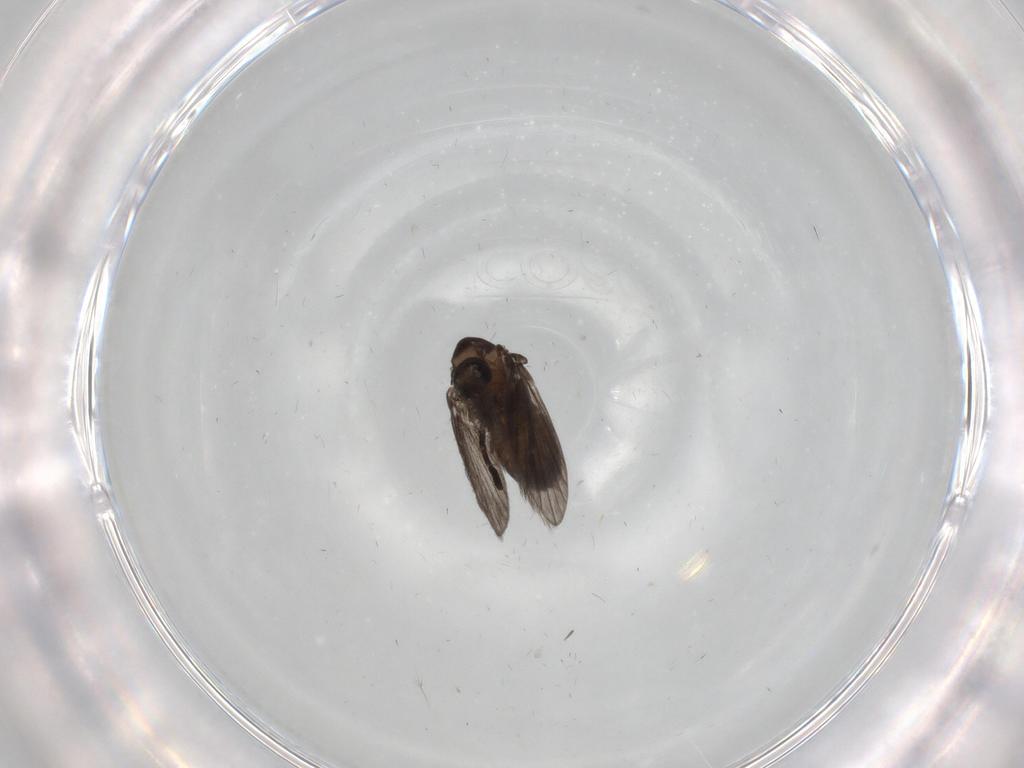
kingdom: Animalia
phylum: Arthropoda
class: Insecta
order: Diptera
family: Psychodidae
